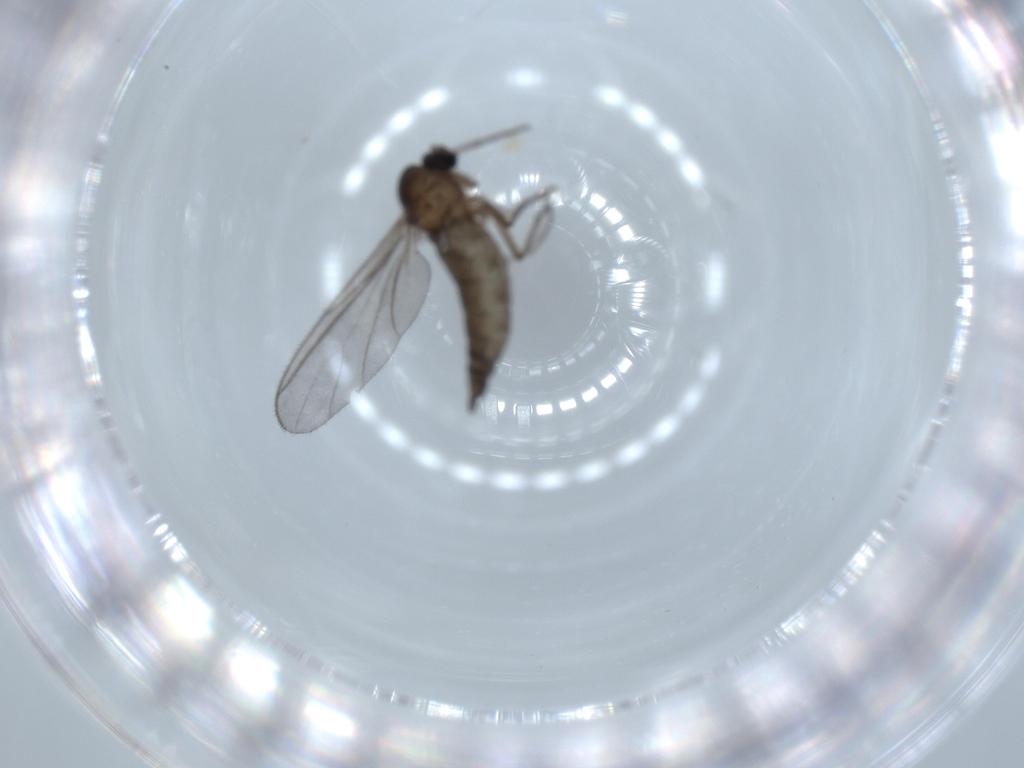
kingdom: Animalia
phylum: Arthropoda
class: Insecta
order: Diptera
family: Sciaridae
